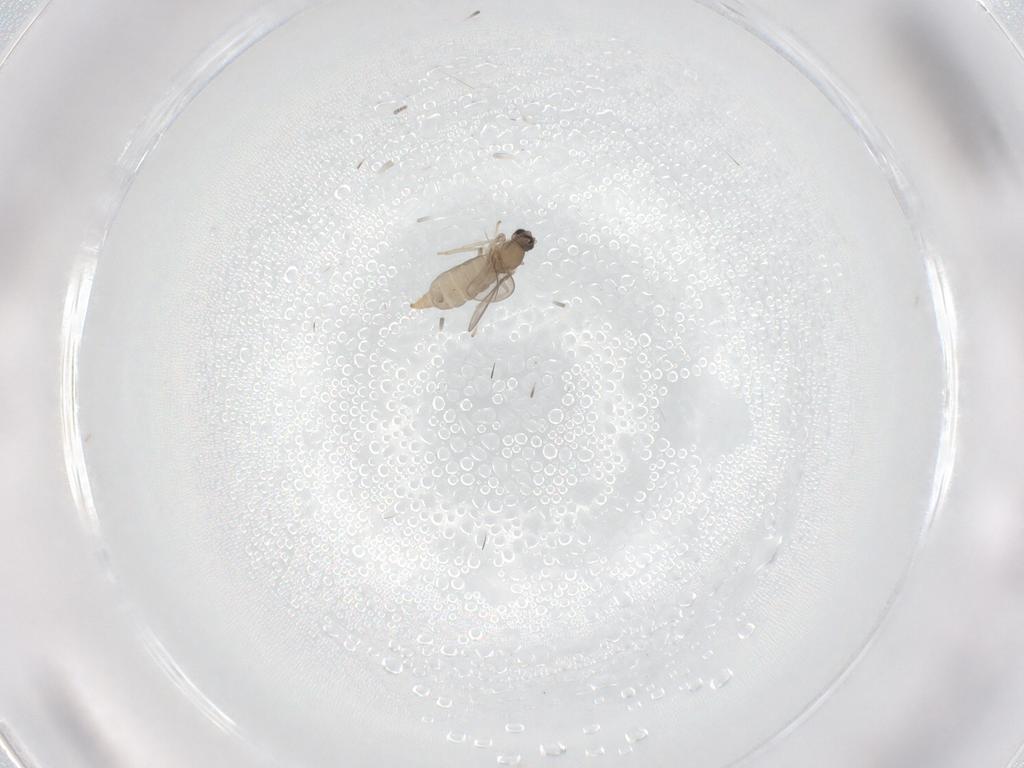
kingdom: Animalia
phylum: Arthropoda
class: Insecta
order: Diptera
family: Cecidomyiidae
